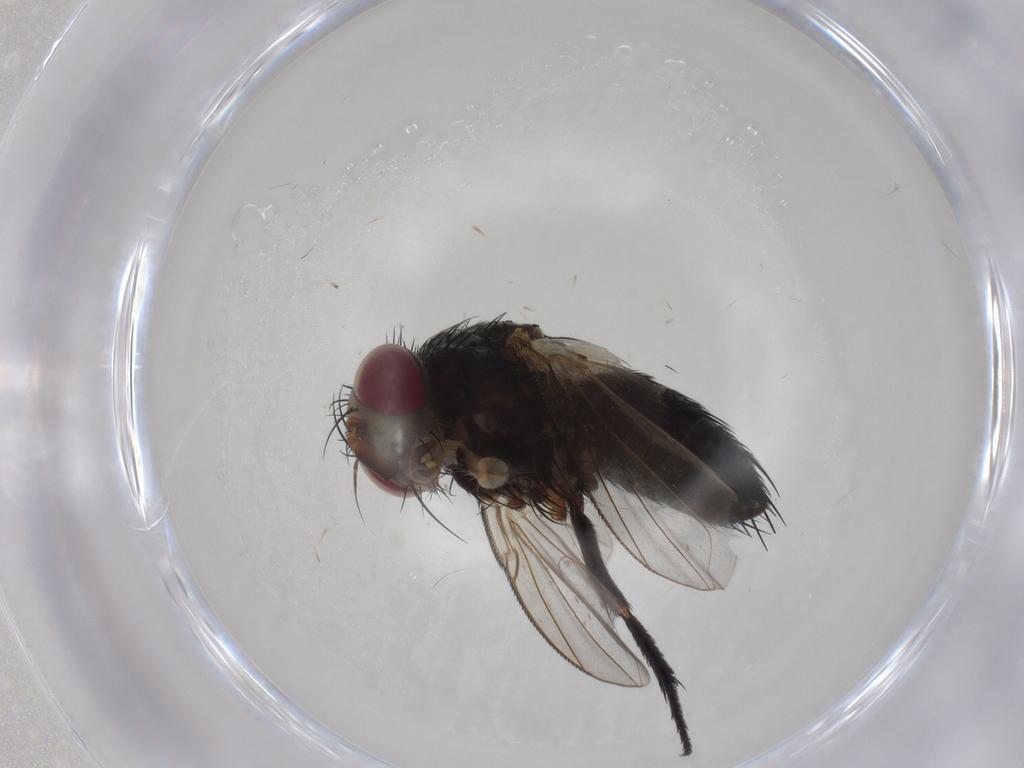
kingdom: Animalia
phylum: Arthropoda
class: Insecta
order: Diptera
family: Tachinidae
